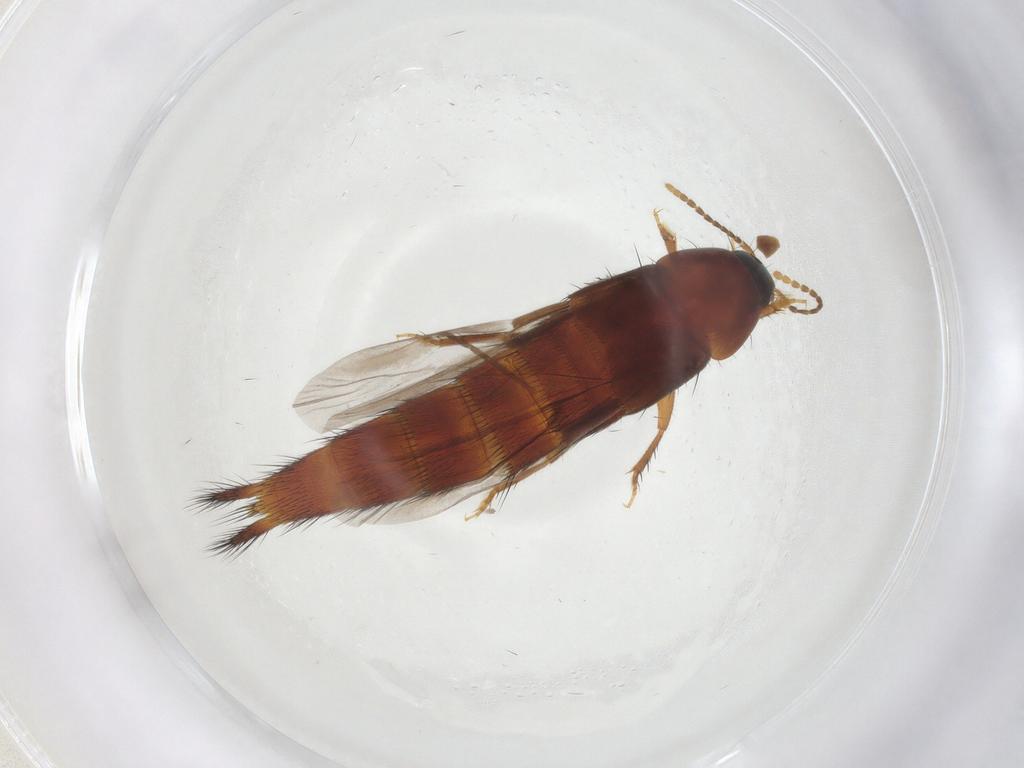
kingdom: Animalia
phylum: Arthropoda
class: Insecta
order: Coleoptera
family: Staphylinidae
